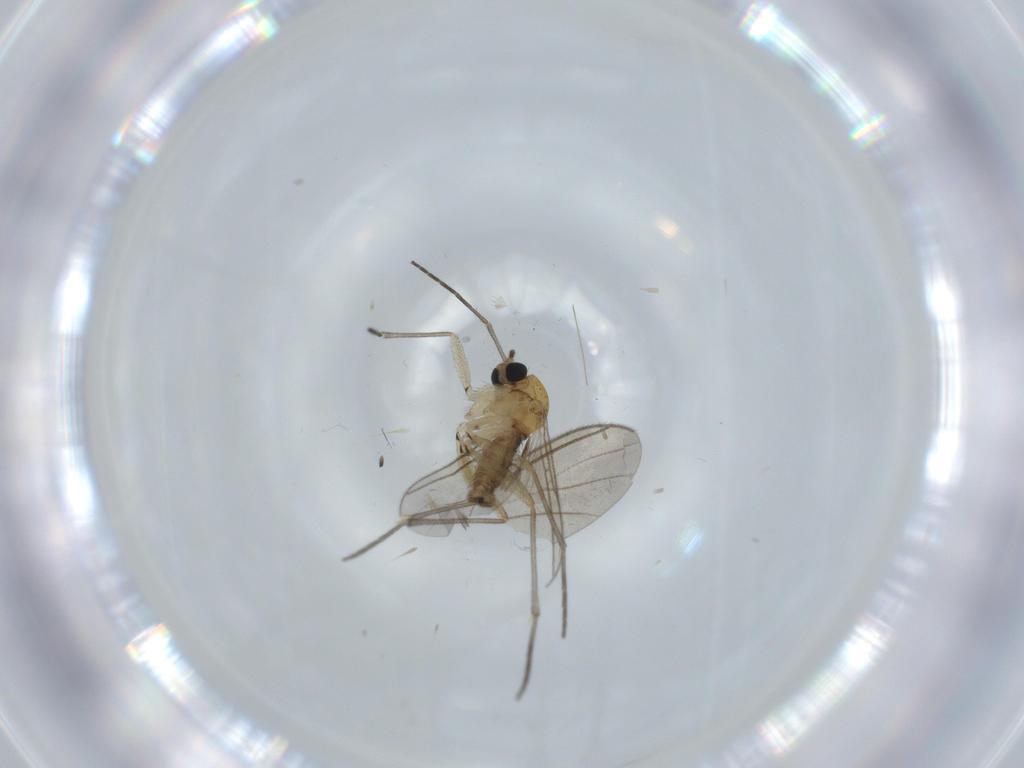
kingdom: Animalia
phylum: Arthropoda
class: Insecta
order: Diptera
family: Sciaridae
